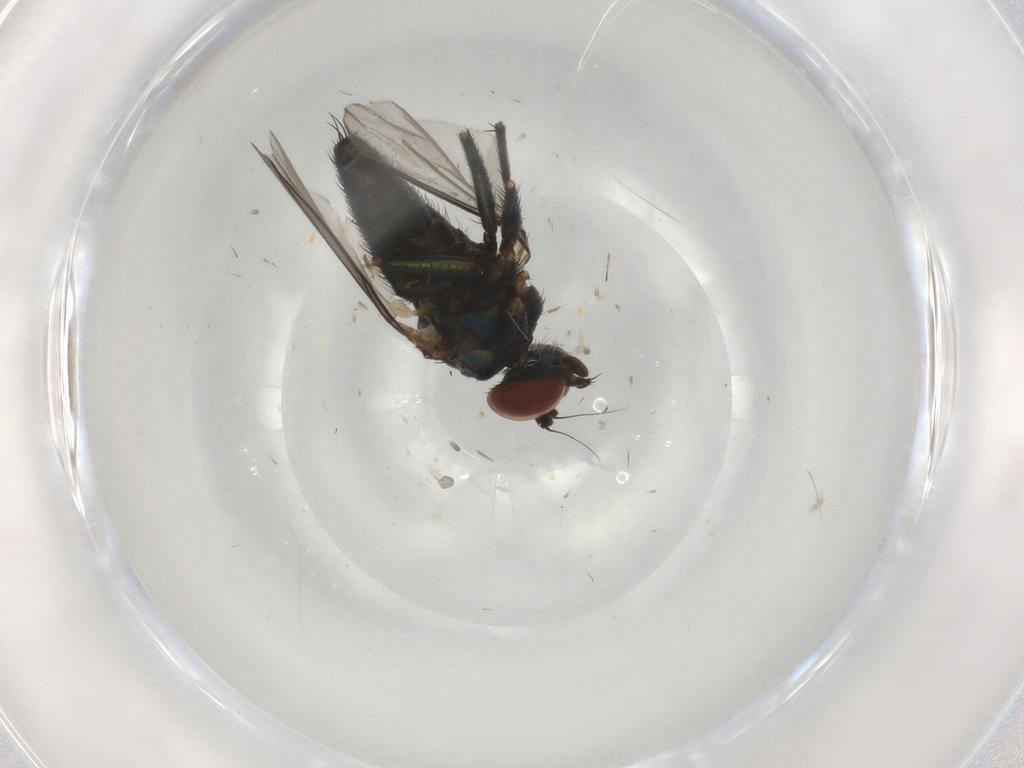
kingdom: Animalia
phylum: Arthropoda
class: Insecta
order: Diptera
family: Dolichopodidae
